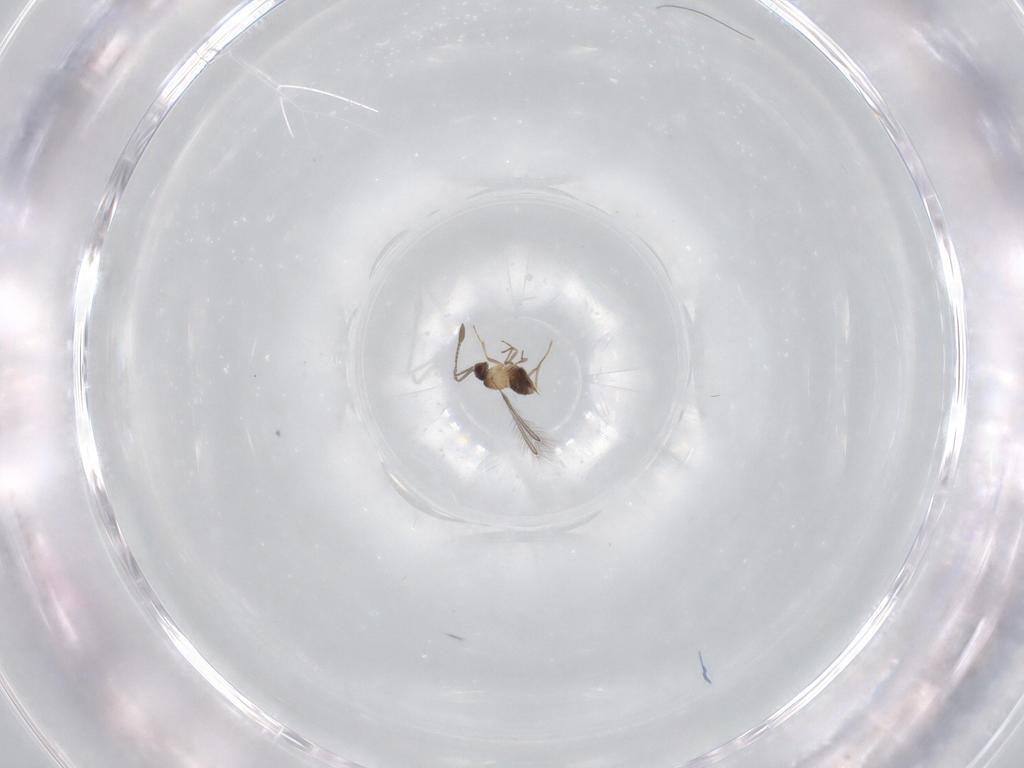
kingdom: Animalia
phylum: Arthropoda
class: Insecta
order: Hymenoptera
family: Mymaridae
